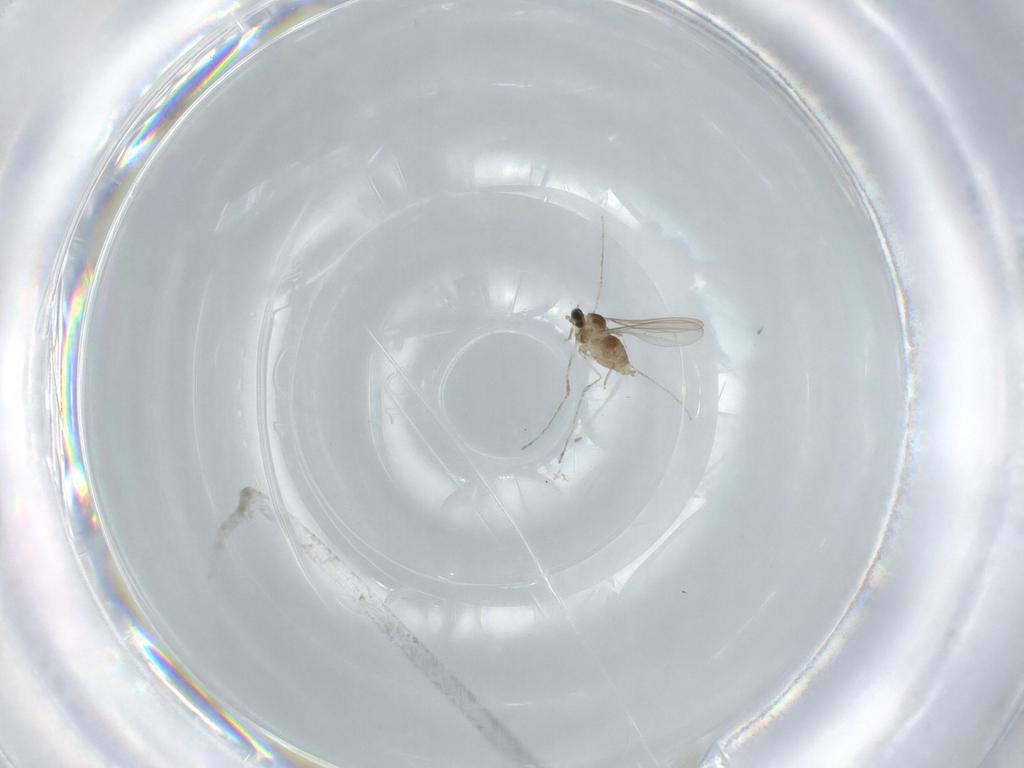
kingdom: Animalia
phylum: Arthropoda
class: Insecta
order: Diptera
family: Cecidomyiidae
